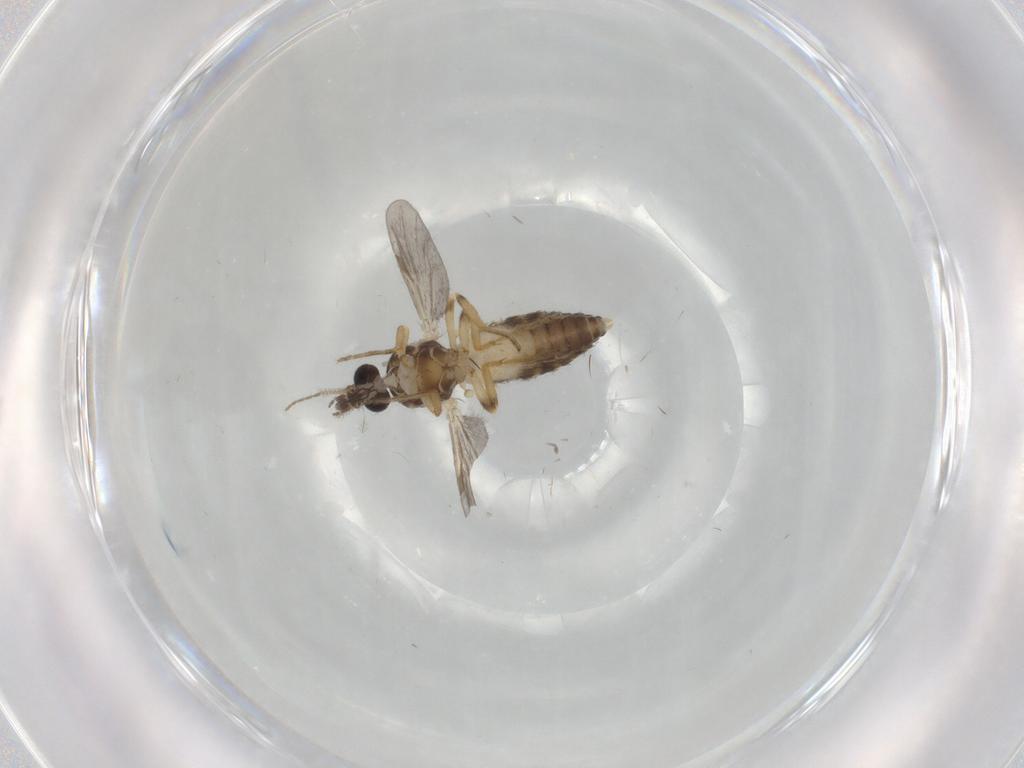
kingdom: Animalia
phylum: Arthropoda
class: Insecta
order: Diptera
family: Ceratopogonidae
